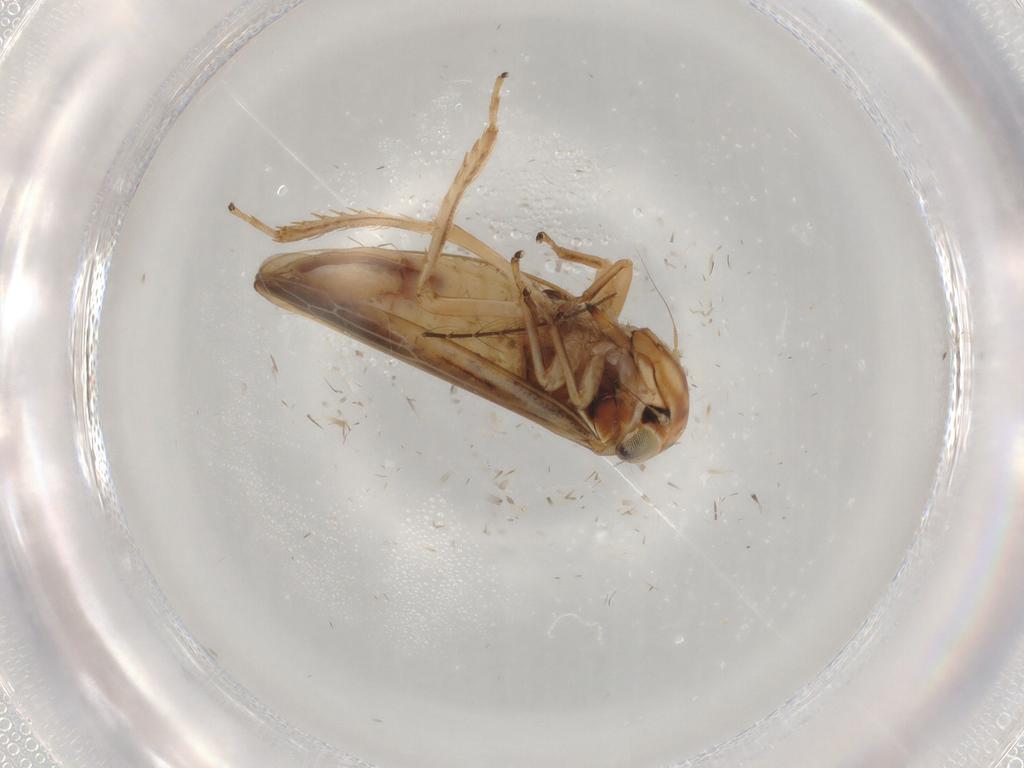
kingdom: Animalia
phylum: Arthropoda
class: Insecta
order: Hemiptera
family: Cicadellidae
